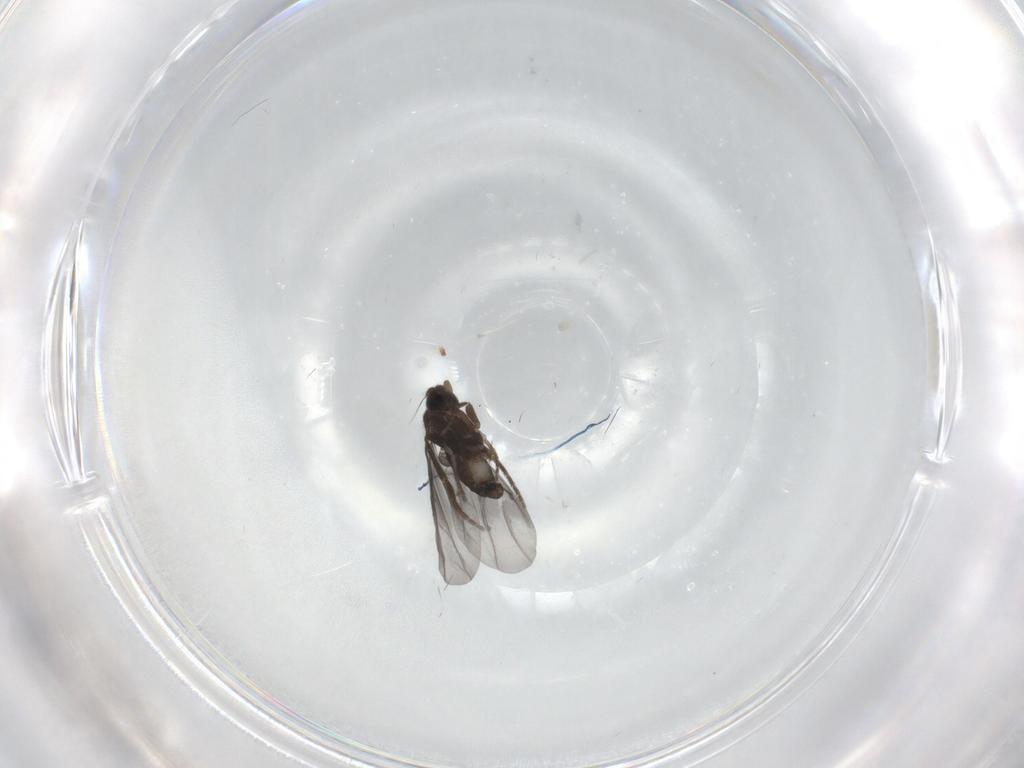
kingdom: Animalia
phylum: Arthropoda
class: Insecta
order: Diptera
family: Phoridae
